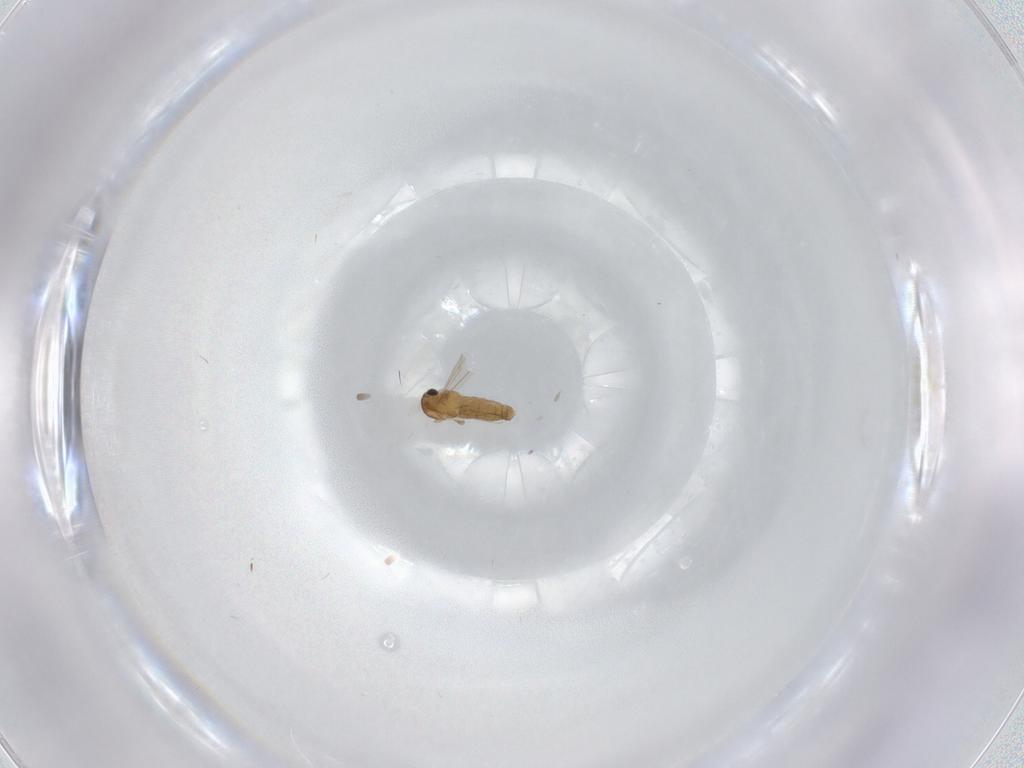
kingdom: Animalia
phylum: Arthropoda
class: Insecta
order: Diptera
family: Chironomidae
